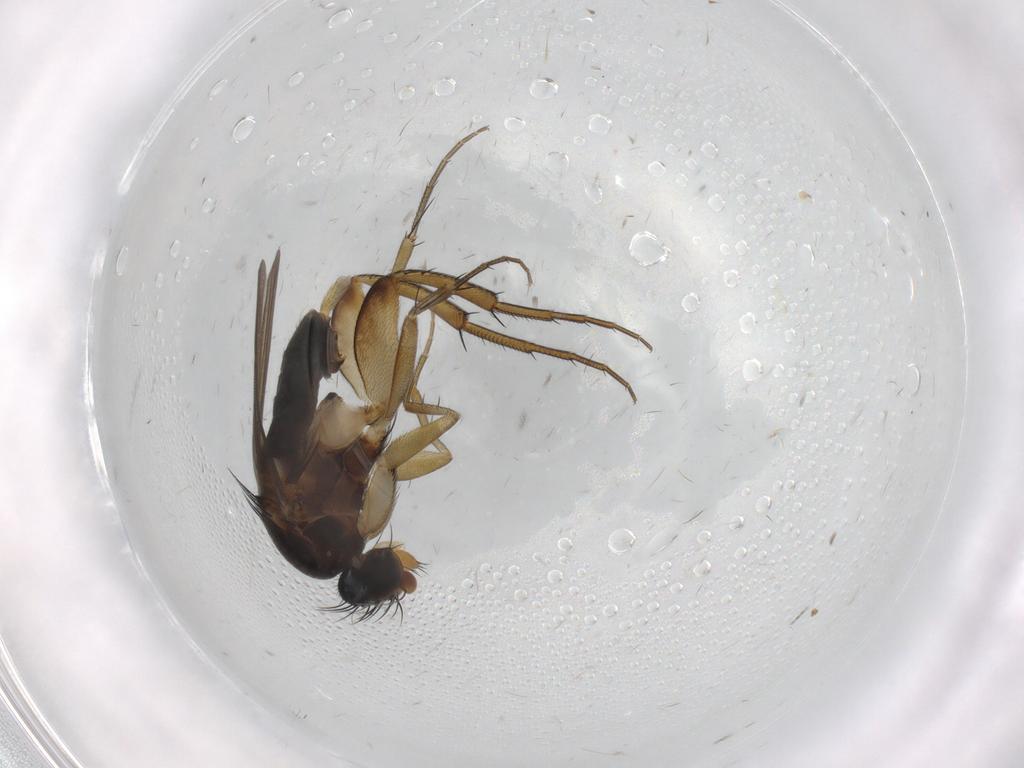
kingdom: Animalia
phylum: Arthropoda
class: Insecta
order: Diptera
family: Phoridae
